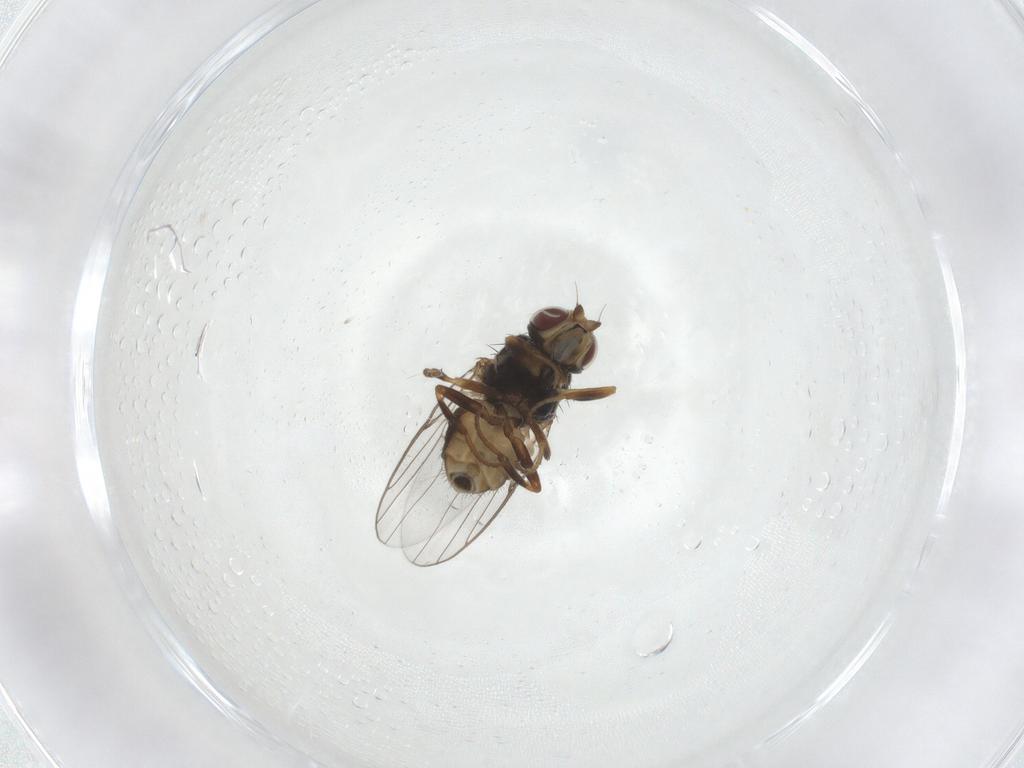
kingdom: Animalia
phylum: Arthropoda
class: Insecta
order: Diptera
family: Chloropidae
